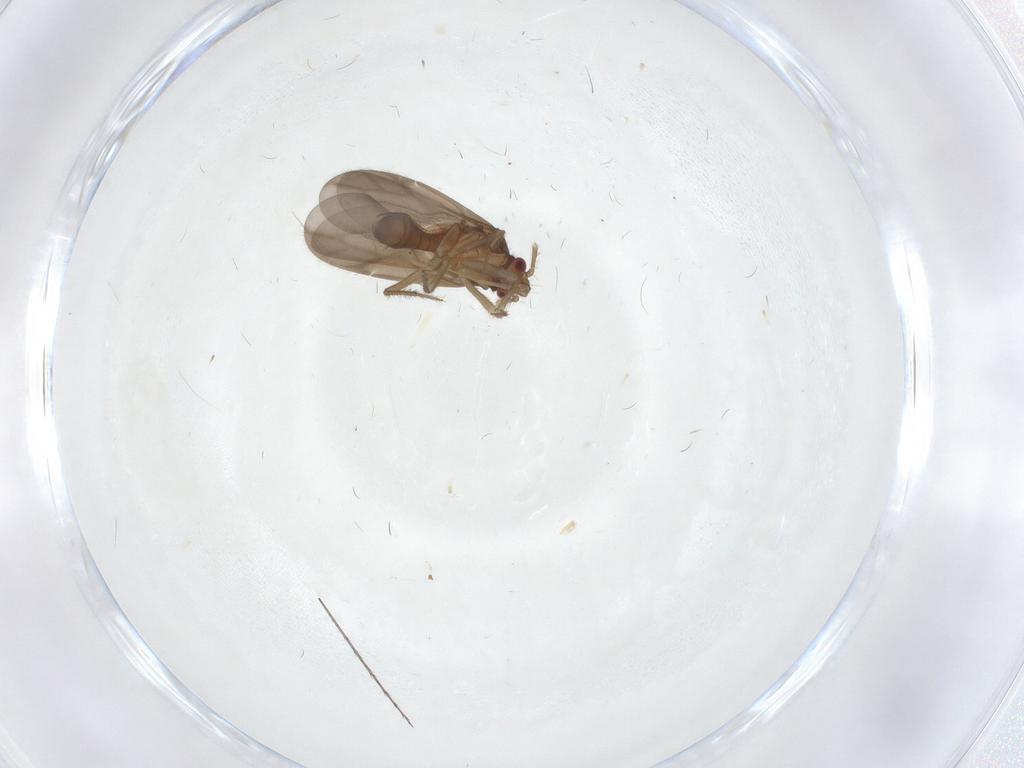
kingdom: Animalia
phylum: Arthropoda
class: Insecta
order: Hemiptera
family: Ceratocombidae
